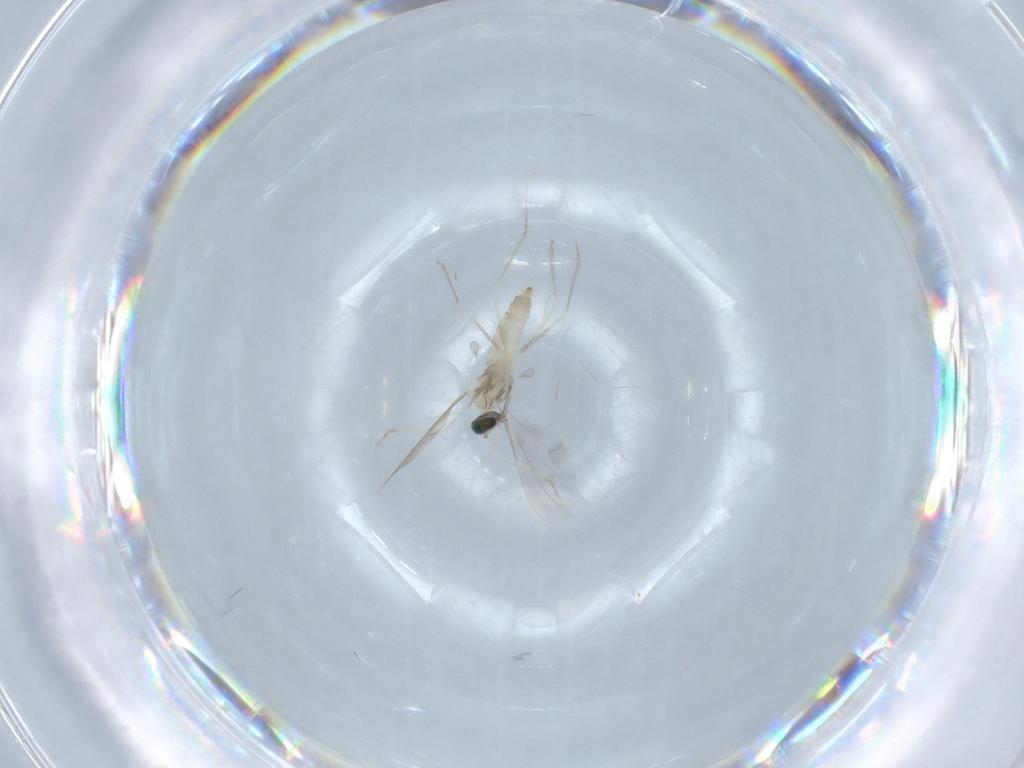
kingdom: Animalia
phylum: Arthropoda
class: Insecta
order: Diptera
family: Cecidomyiidae
